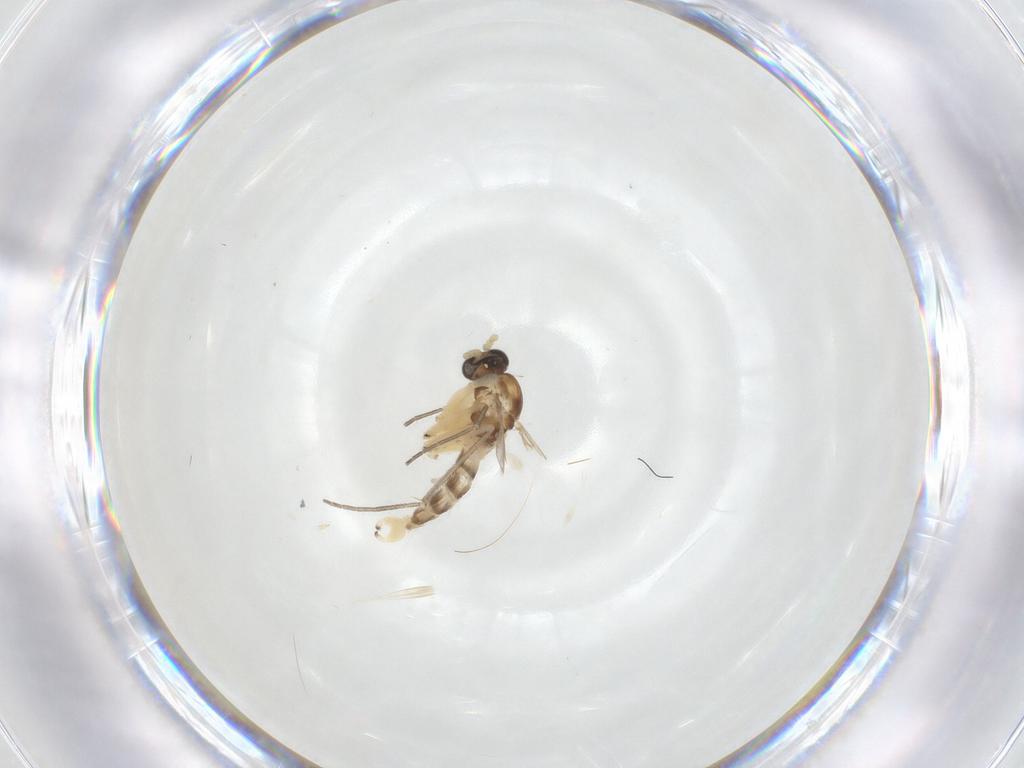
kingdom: Animalia
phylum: Arthropoda
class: Insecta
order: Diptera
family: Sciaridae
